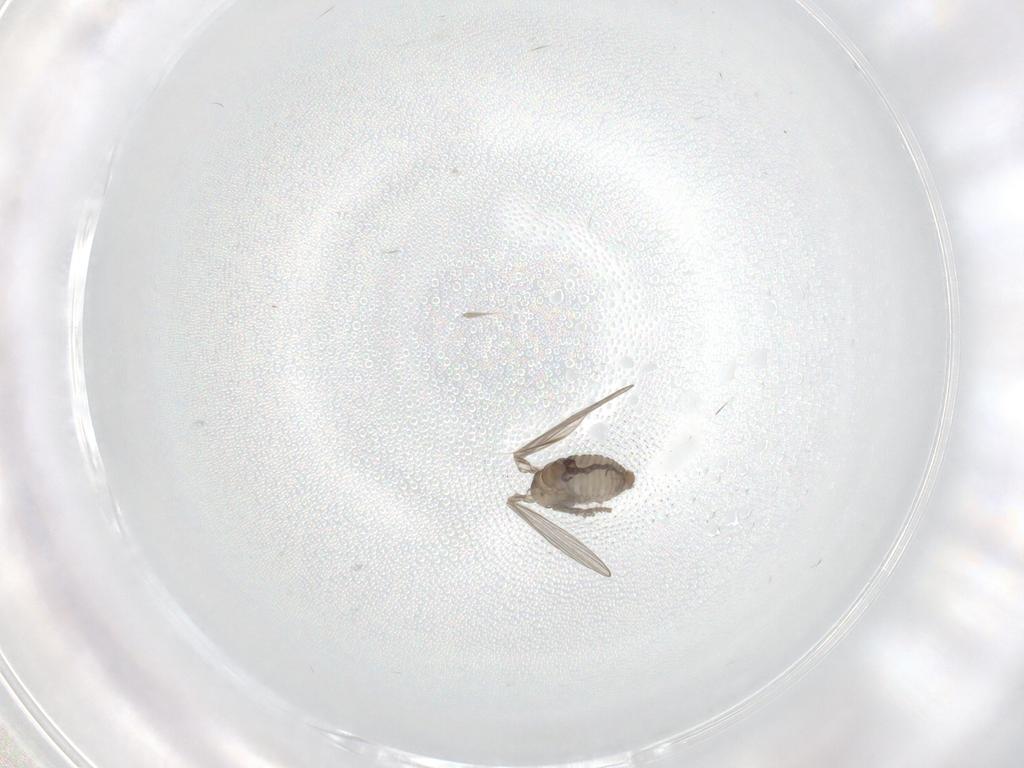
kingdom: Animalia
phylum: Arthropoda
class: Insecta
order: Diptera
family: Psychodidae
